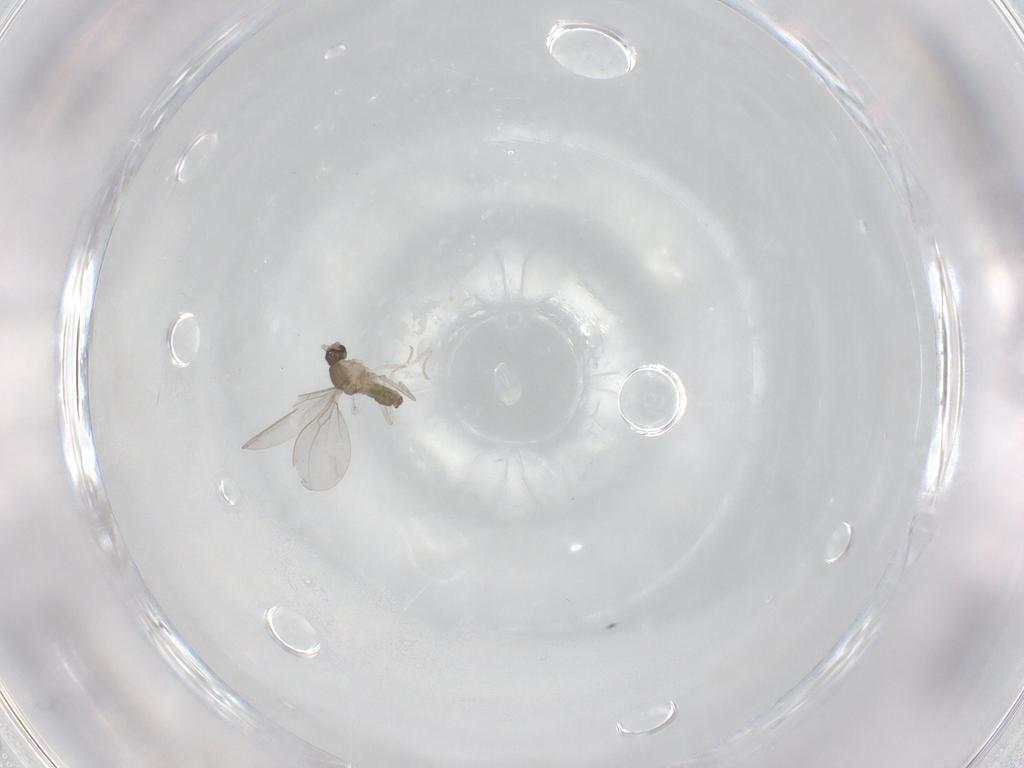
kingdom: Animalia
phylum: Arthropoda
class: Insecta
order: Diptera
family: Cecidomyiidae
